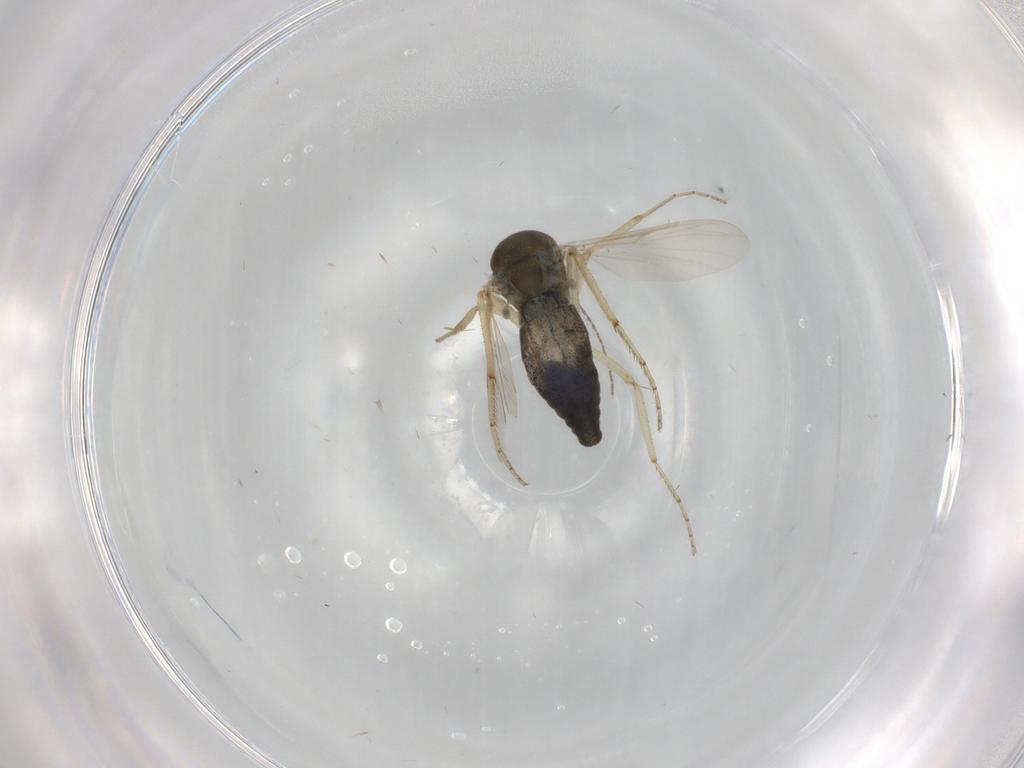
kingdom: Animalia
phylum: Arthropoda
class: Insecta
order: Diptera
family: Ceratopogonidae
